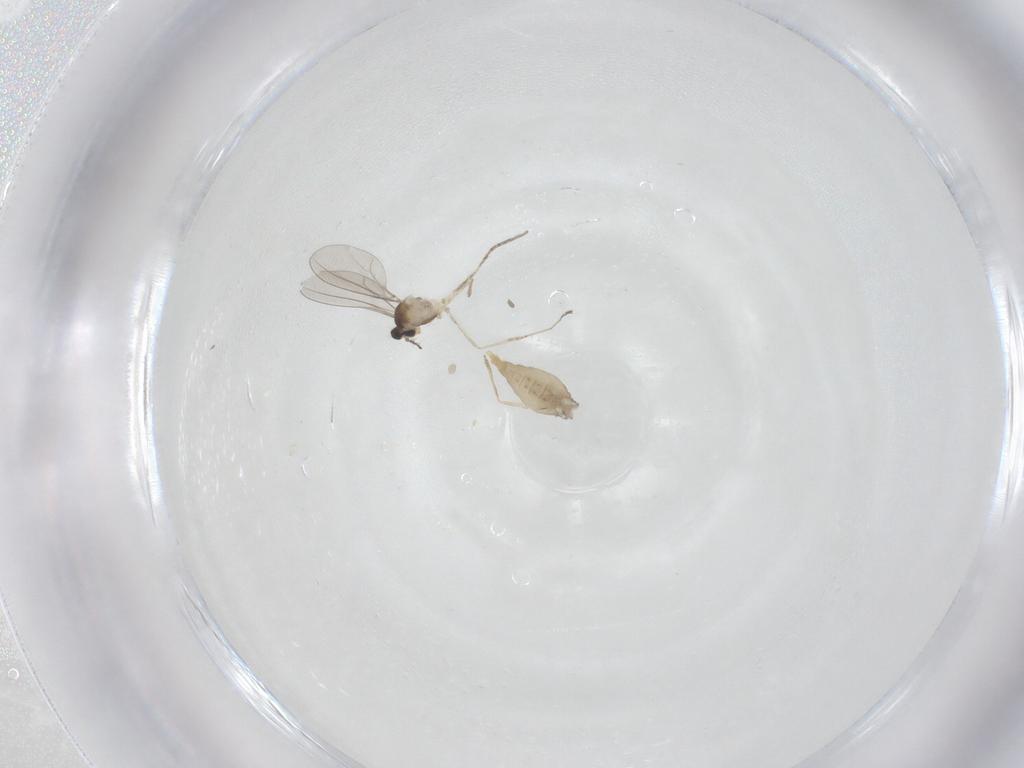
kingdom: Animalia
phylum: Arthropoda
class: Insecta
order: Diptera
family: Cecidomyiidae
